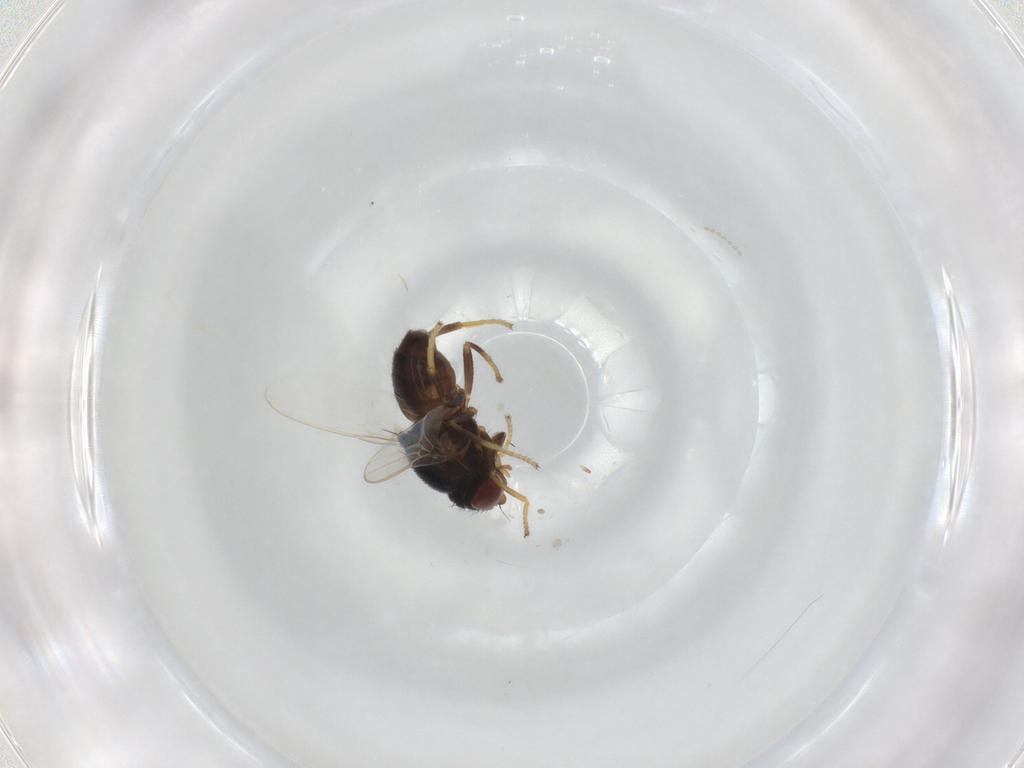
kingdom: Animalia
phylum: Arthropoda
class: Insecta
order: Diptera
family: Chloropidae
